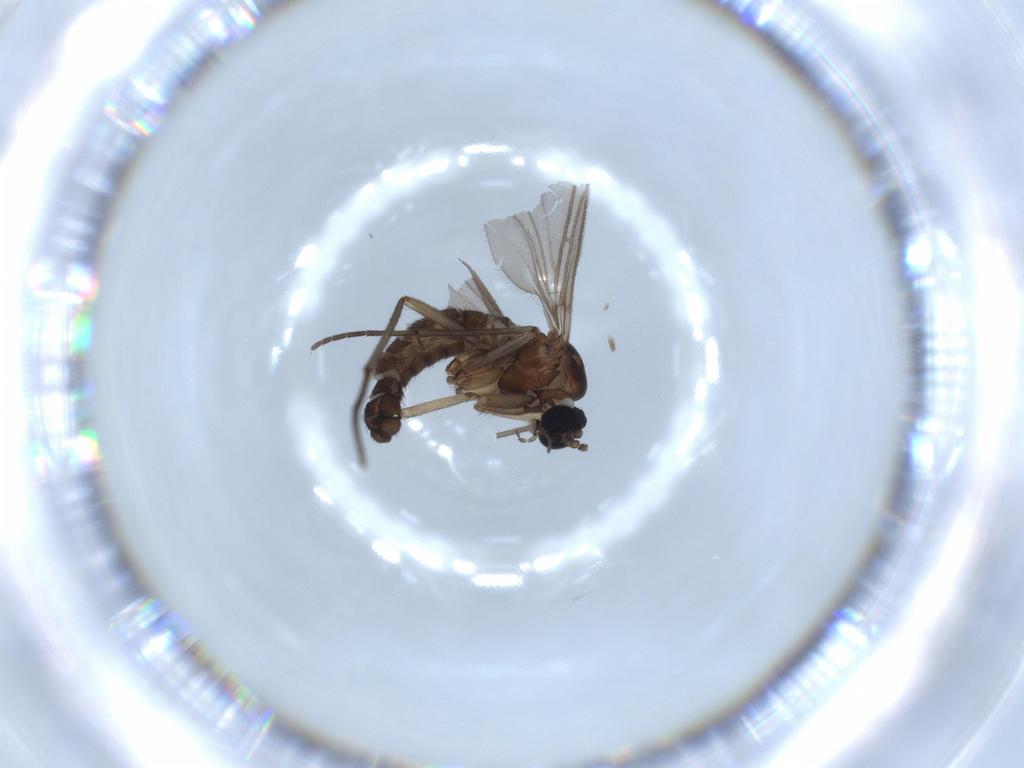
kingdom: Animalia
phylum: Arthropoda
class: Insecta
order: Diptera
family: Sciaridae
